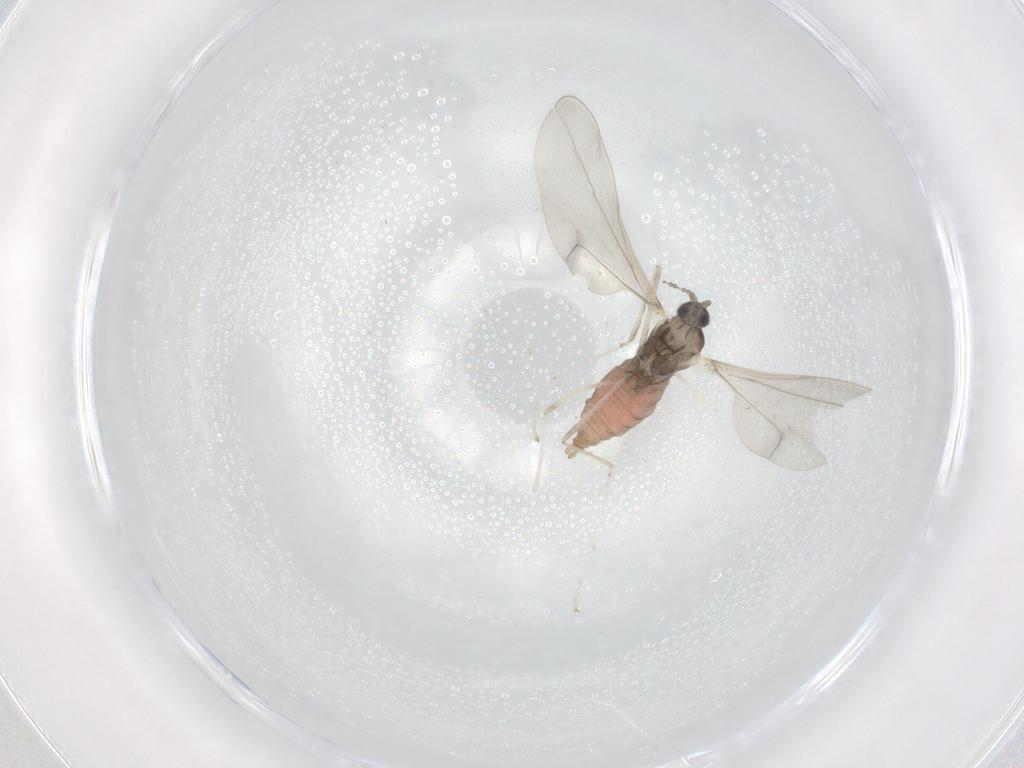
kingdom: Animalia
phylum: Arthropoda
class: Insecta
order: Diptera
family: Cecidomyiidae
